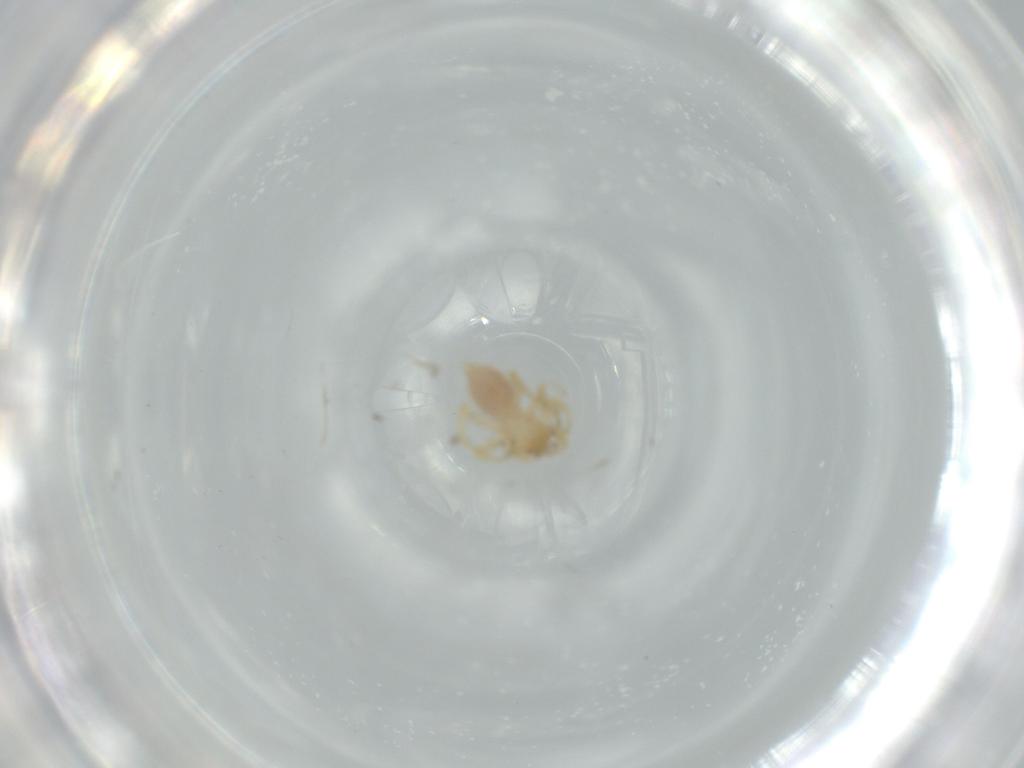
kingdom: Animalia
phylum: Arthropoda
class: Arachnida
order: Araneae
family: Oonopidae
